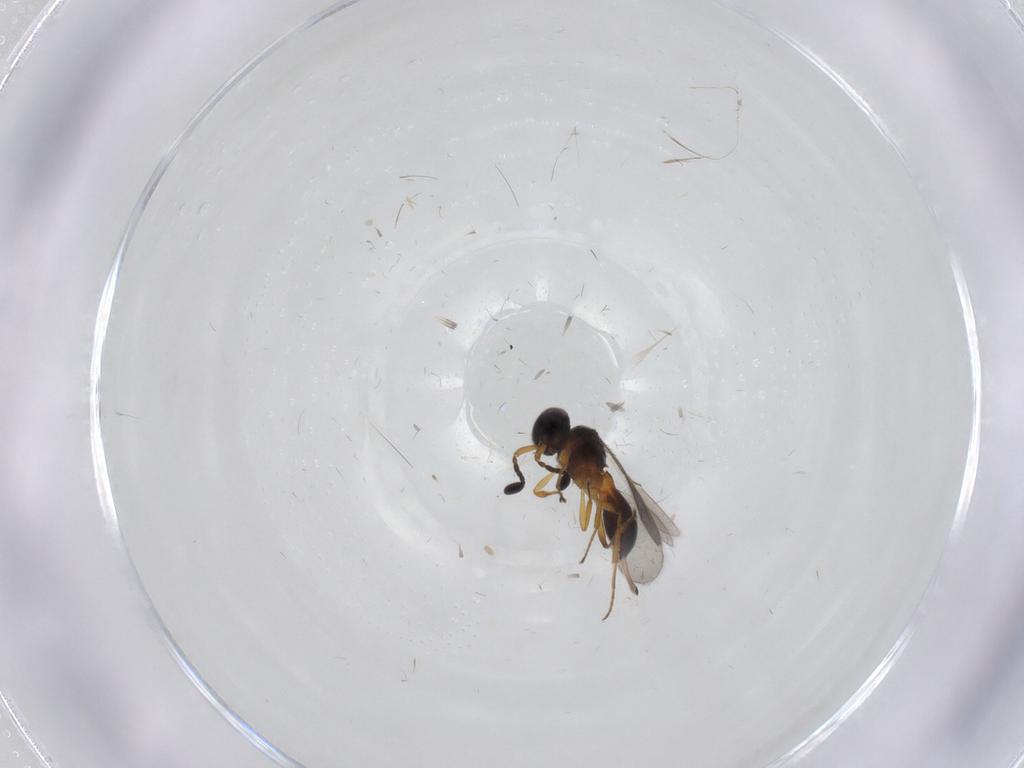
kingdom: Animalia
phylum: Arthropoda
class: Insecta
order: Hymenoptera
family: Scelionidae
